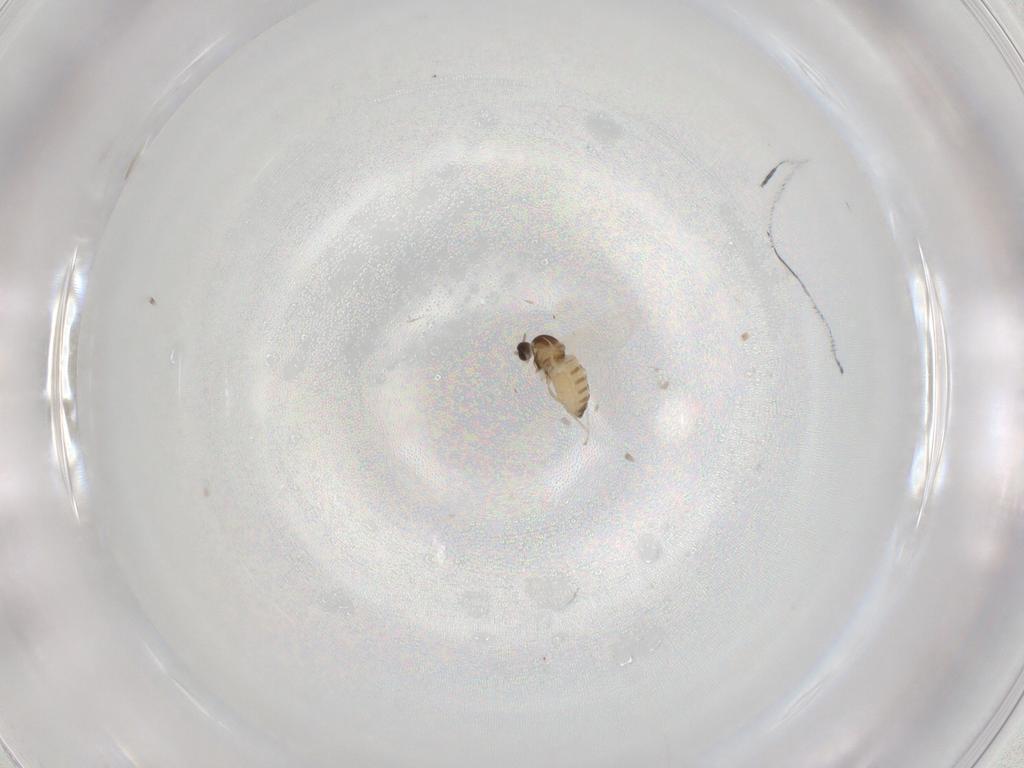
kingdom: Animalia
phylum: Arthropoda
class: Insecta
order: Diptera
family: Cecidomyiidae
